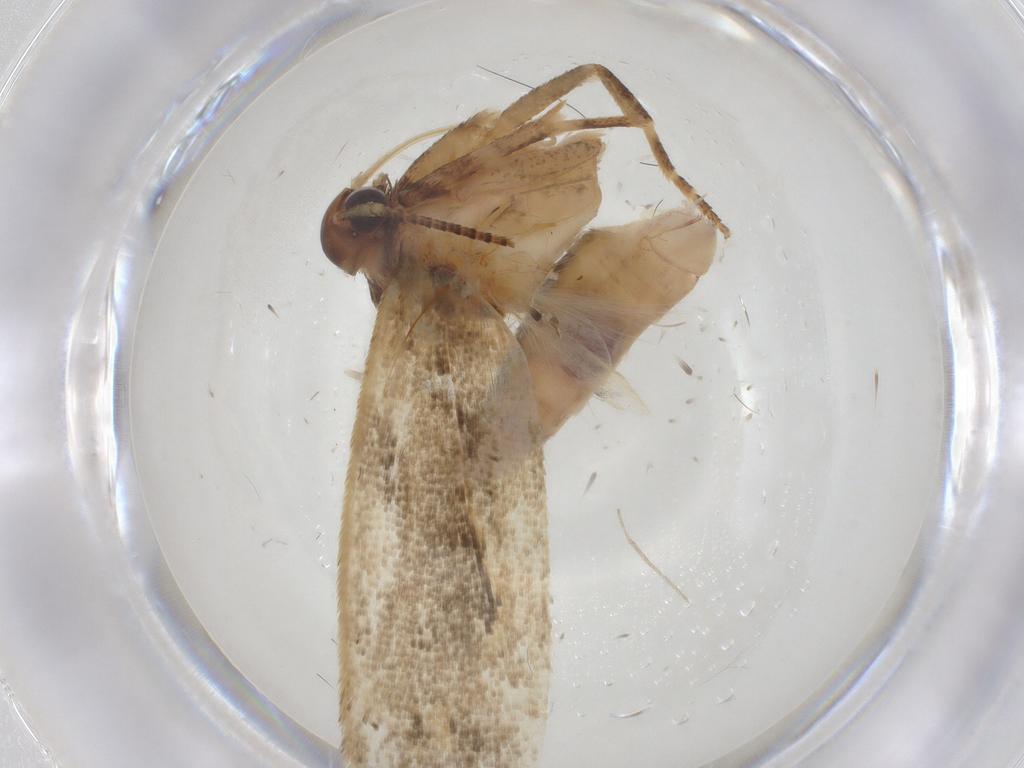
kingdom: Animalia
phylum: Arthropoda
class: Insecta
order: Lepidoptera
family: Gelechiidae
